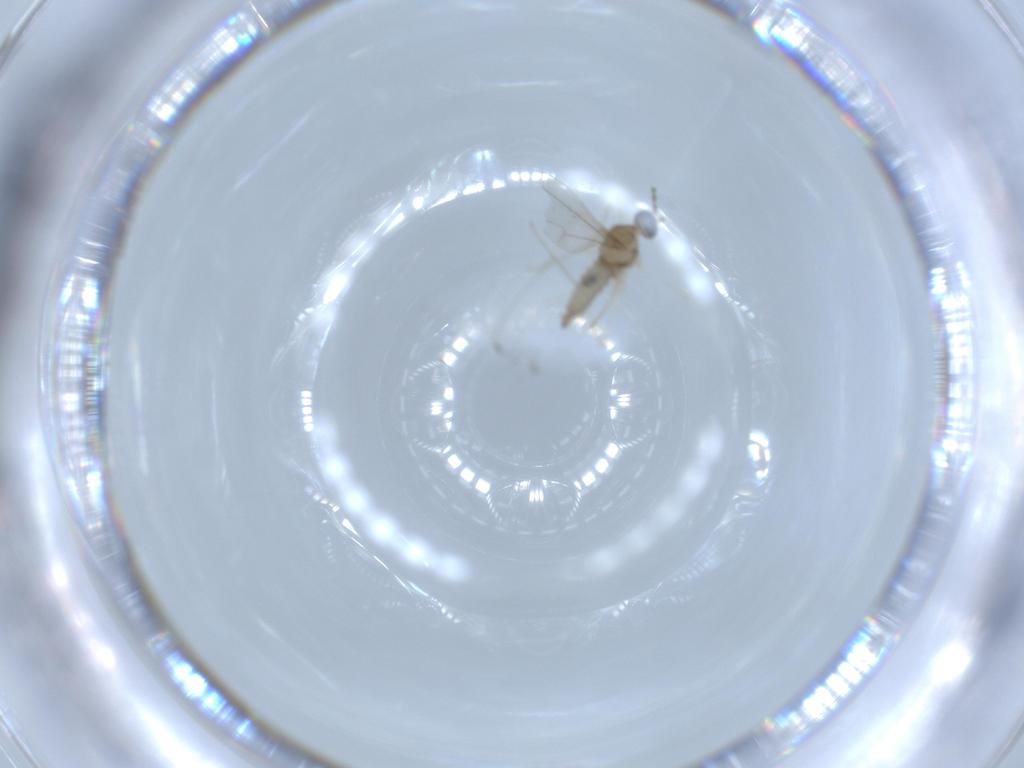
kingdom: Animalia
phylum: Arthropoda
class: Insecta
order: Diptera
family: Cecidomyiidae
